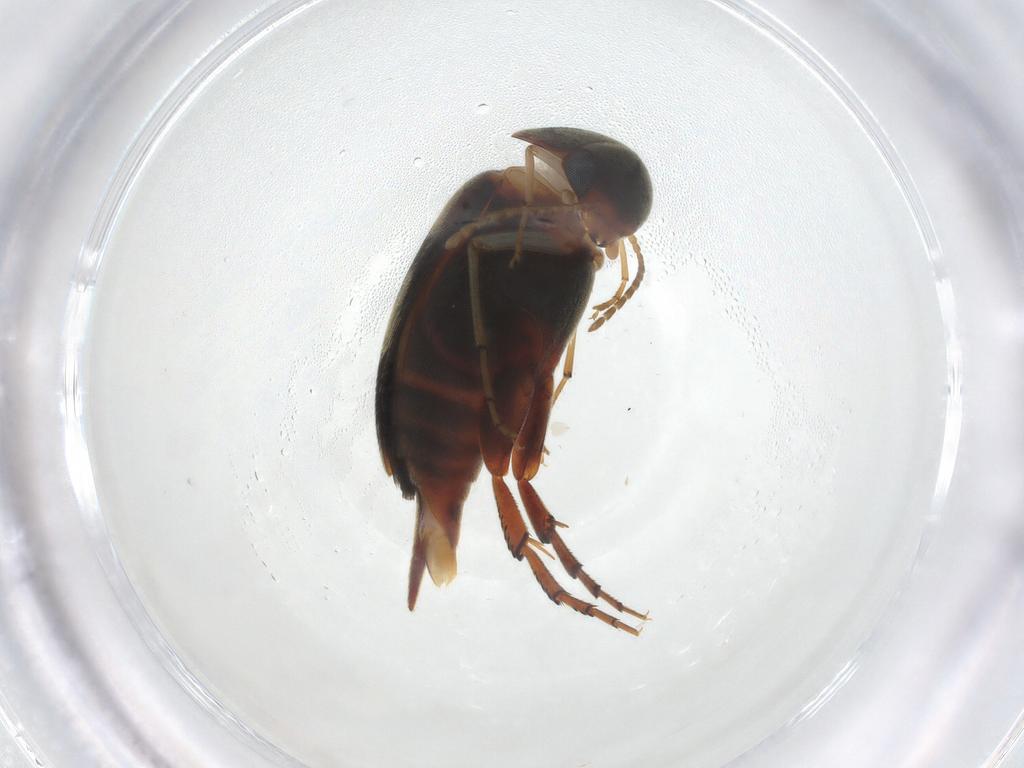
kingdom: Animalia
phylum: Arthropoda
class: Insecta
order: Coleoptera
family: Mordellidae
